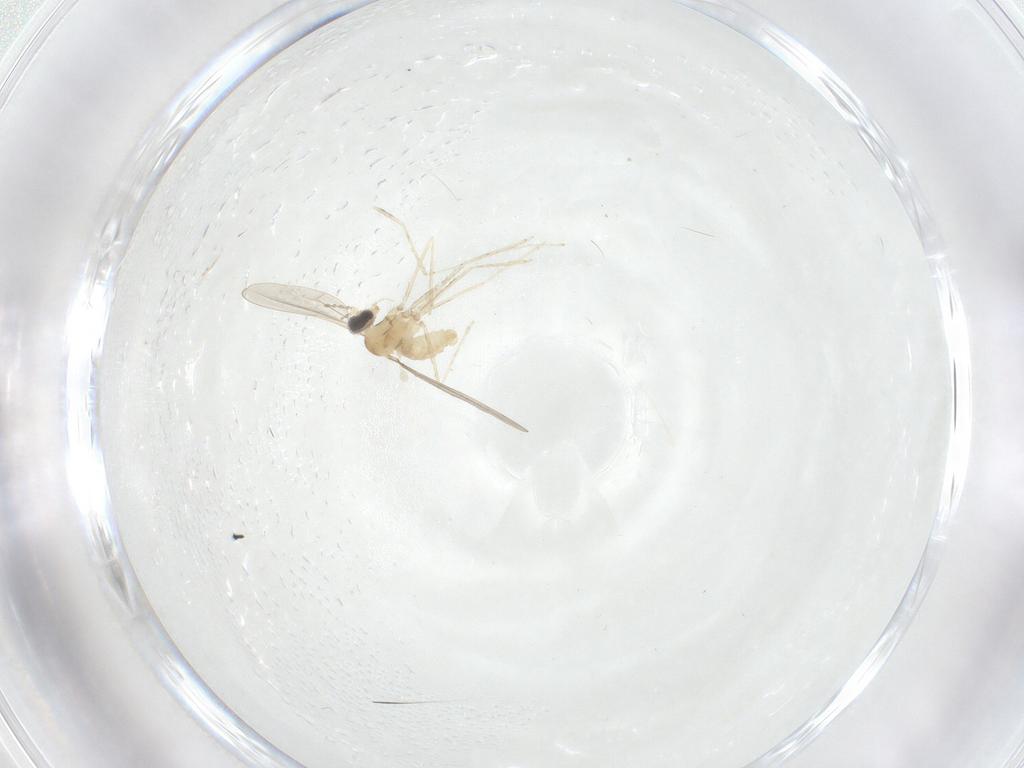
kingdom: Animalia
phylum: Arthropoda
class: Insecta
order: Diptera
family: Cecidomyiidae
